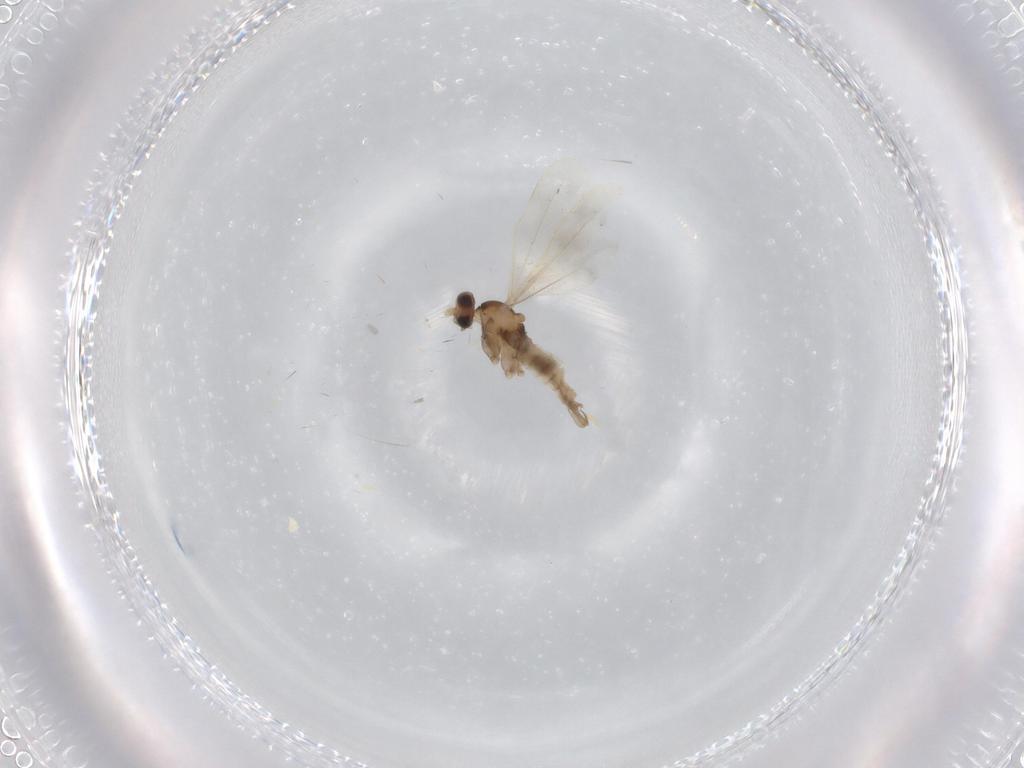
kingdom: Animalia
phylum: Arthropoda
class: Insecta
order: Diptera
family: Cecidomyiidae
